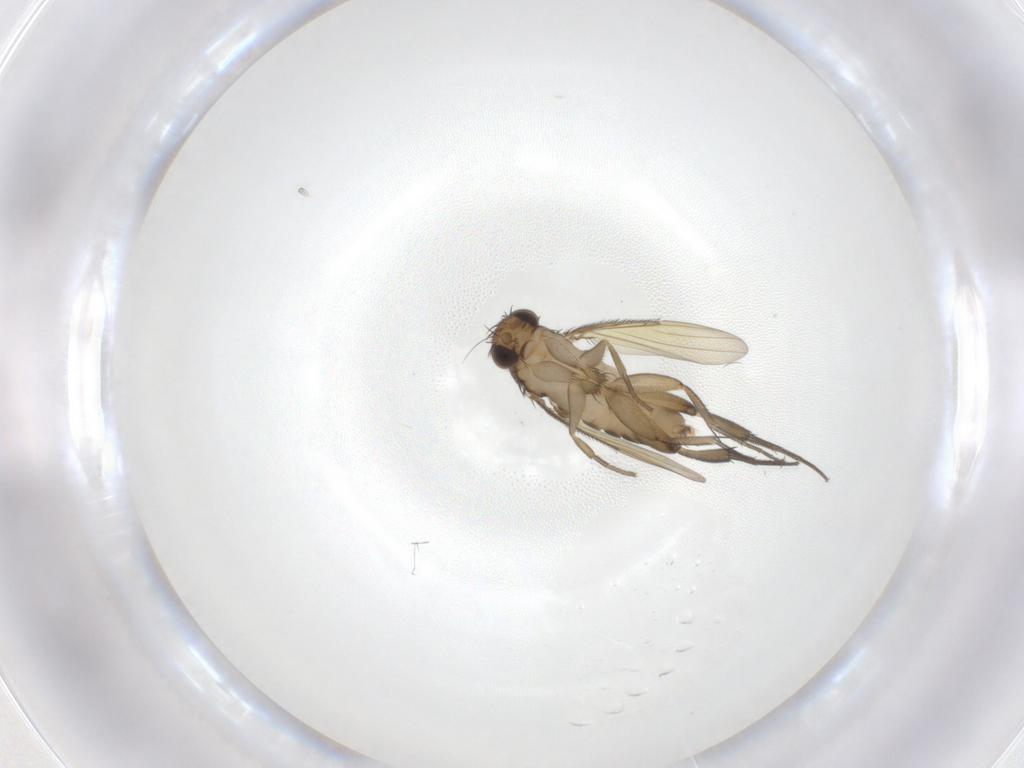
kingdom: Animalia
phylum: Arthropoda
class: Insecta
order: Diptera
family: Phoridae
